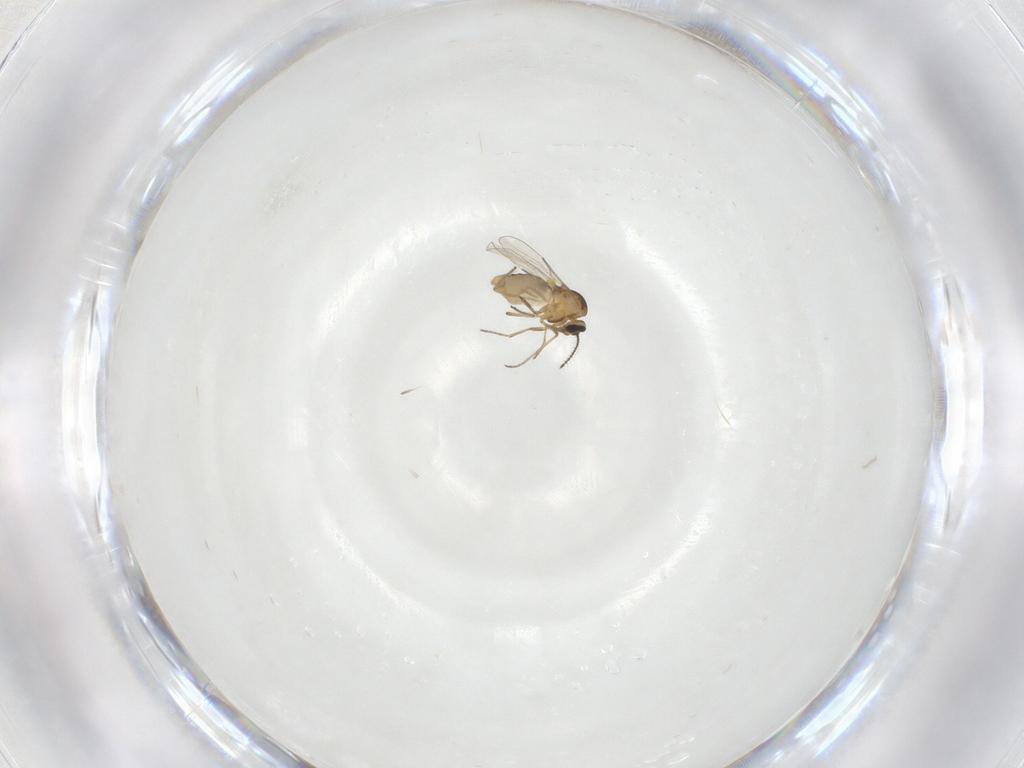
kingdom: Animalia
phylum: Arthropoda
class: Insecta
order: Diptera
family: Ceratopogonidae
